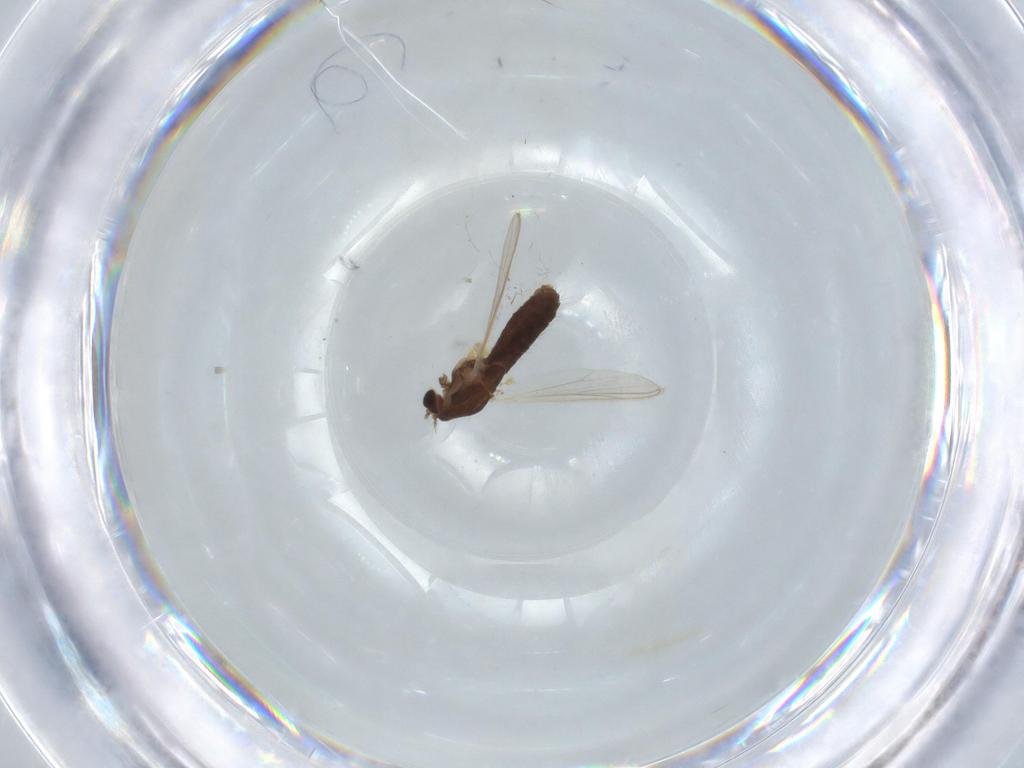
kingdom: Animalia
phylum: Arthropoda
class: Insecta
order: Diptera
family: Chironomidae
